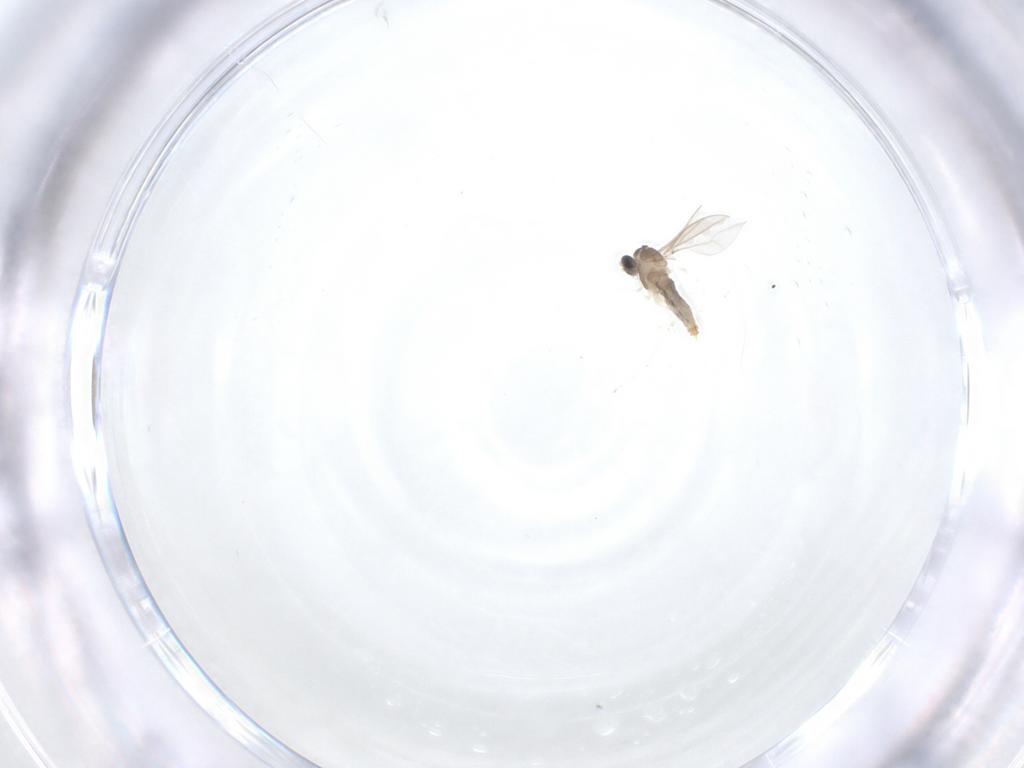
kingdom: Animalia
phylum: Arthropoda
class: Insecta
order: Diptera
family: Cecidomyiidae
